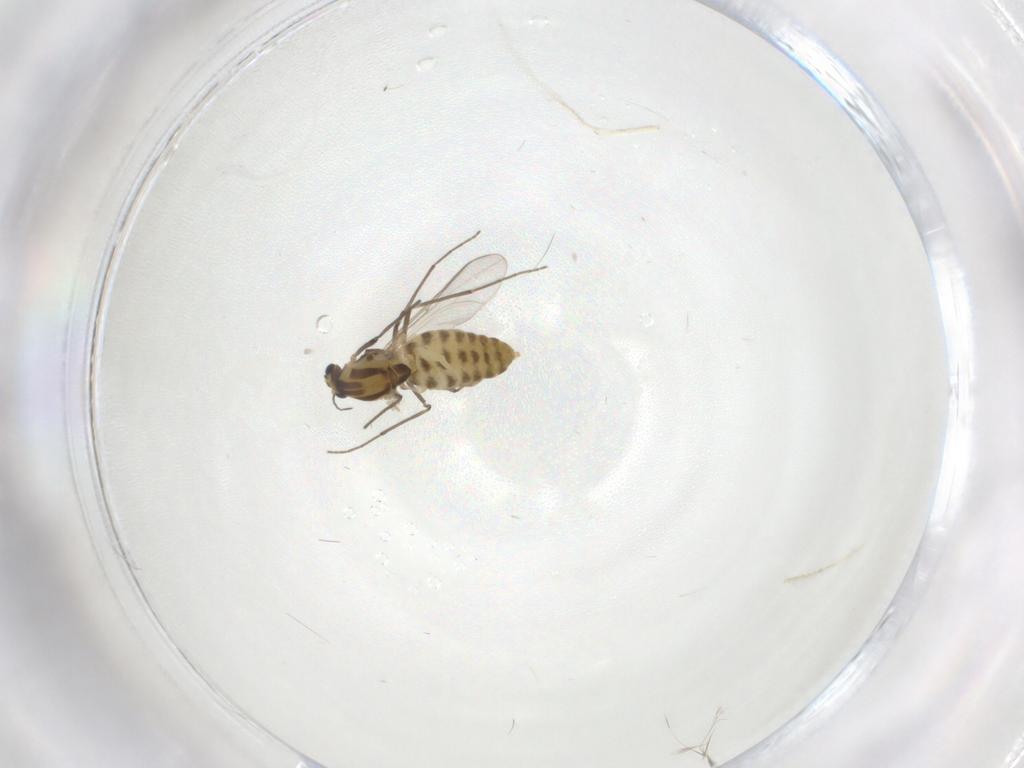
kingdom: Animalia
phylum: Arthropoda
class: Insecta
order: Diptera
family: Chironomidae
